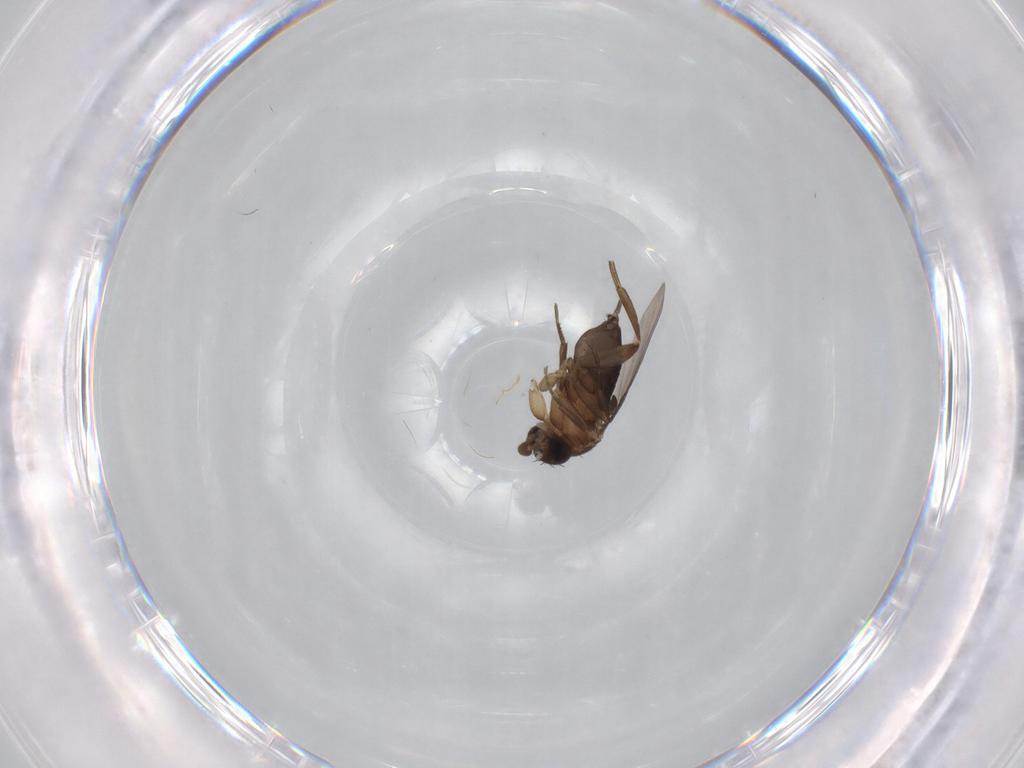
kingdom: Animalia
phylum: Arthropoda
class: Insecta
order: Diptera
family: Phoridae
